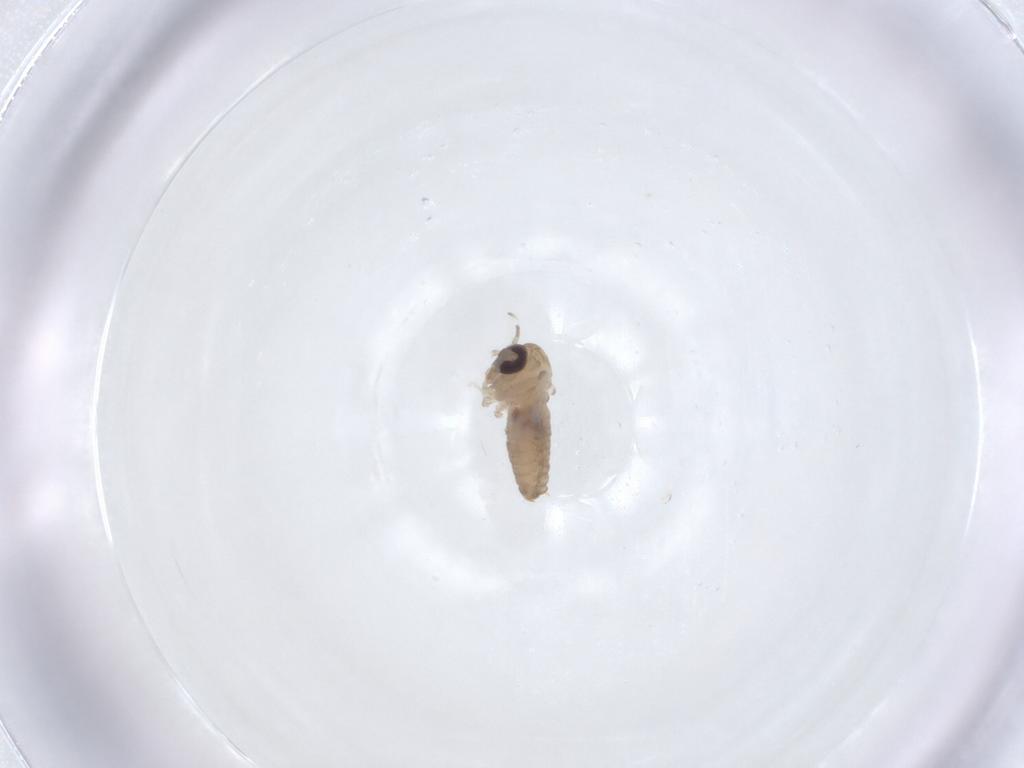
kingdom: Animalia
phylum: Arthropoda
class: Insecta
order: Diptera
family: Psychodidae
